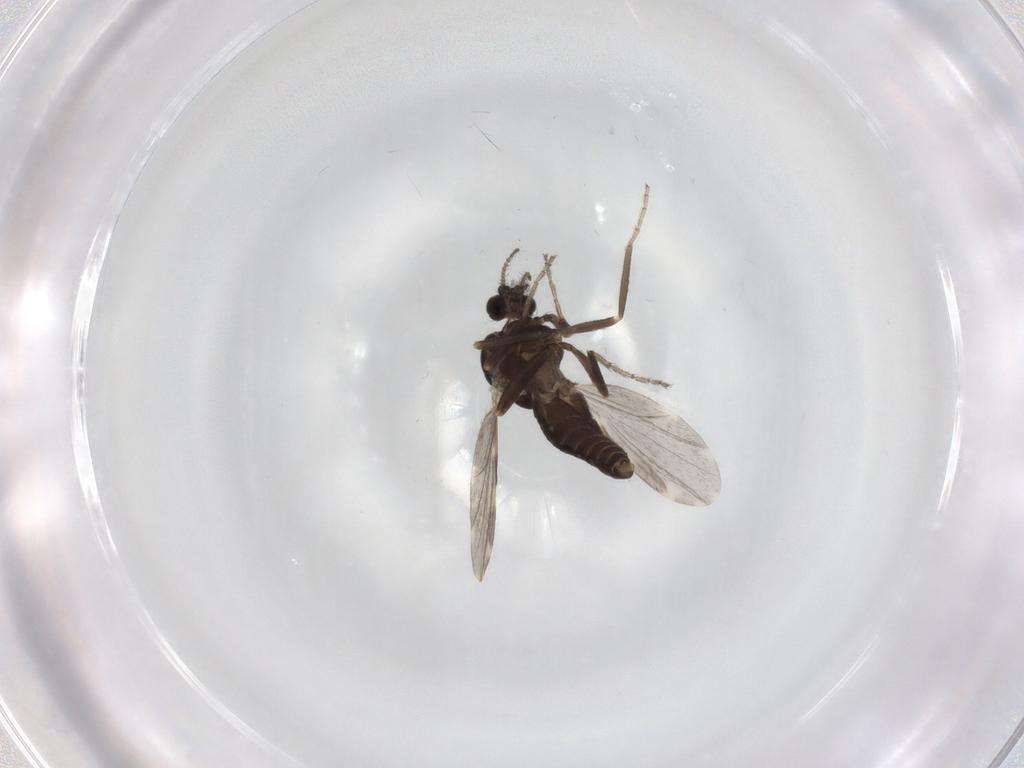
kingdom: Animalia
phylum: Arthropoda
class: Insecta
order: Diptera
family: Ceratopogonidae
